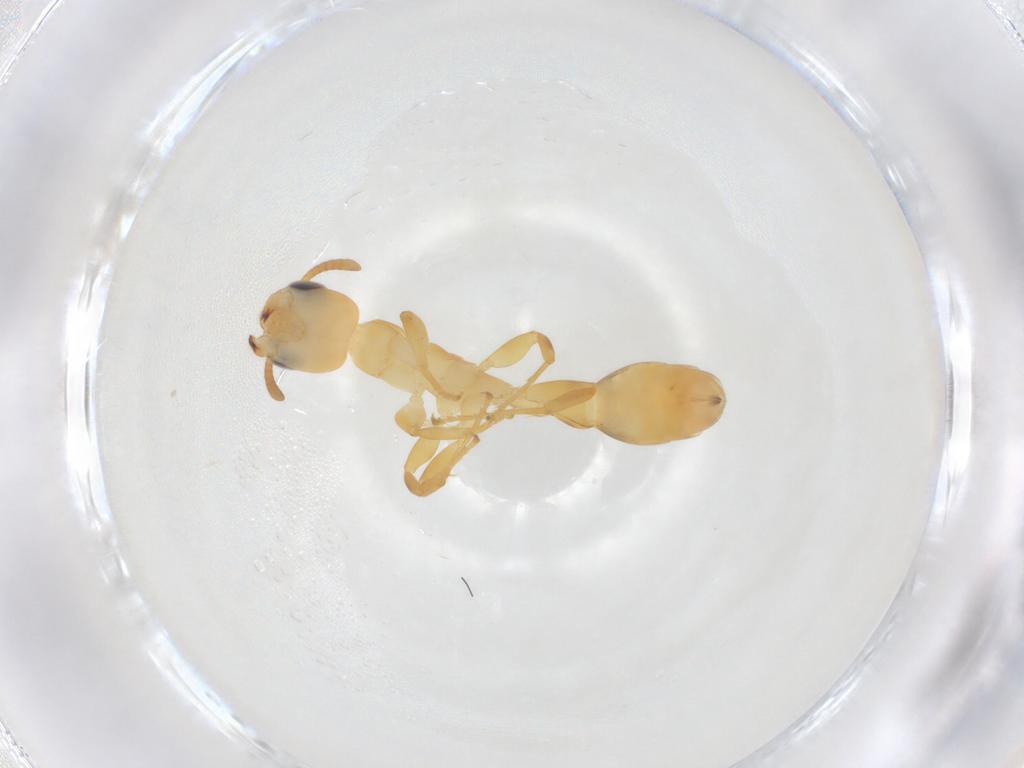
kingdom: Animalia
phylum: Arthropoda
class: Insecta
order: Hymenoptera
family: Formicidae
